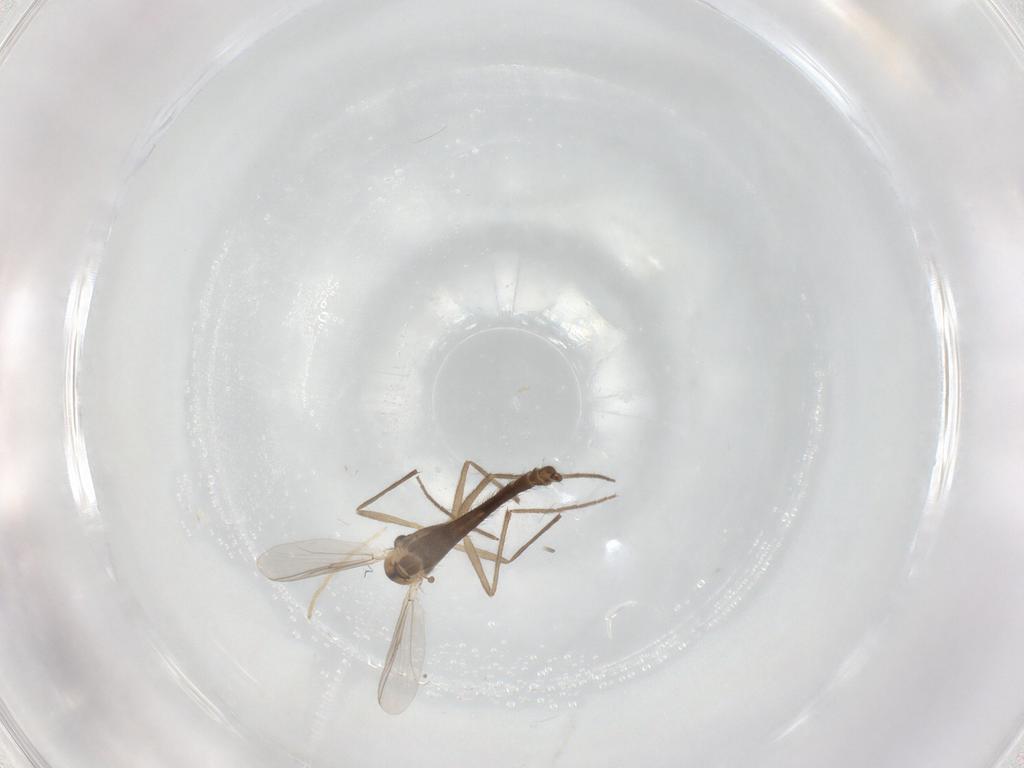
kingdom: Animalia
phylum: Arthropoda
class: Insecta
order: Diptera
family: Chironomidae
